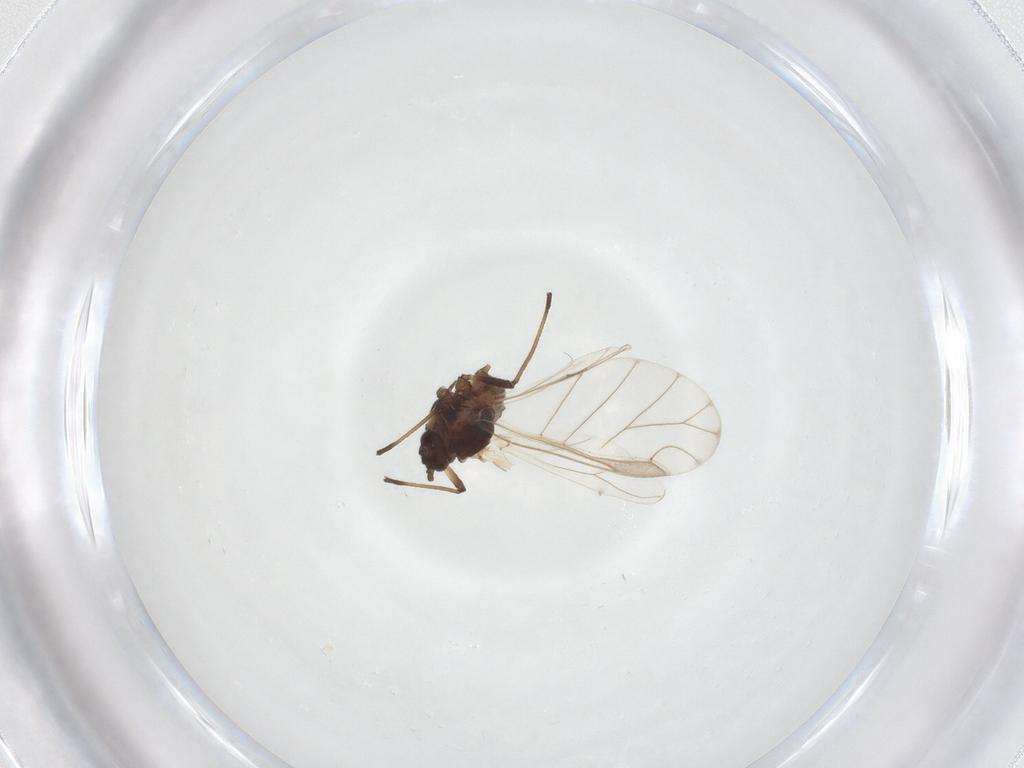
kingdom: Animalia
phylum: Arthropoda
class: Insecta
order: Hemiptera
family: Aphididae
